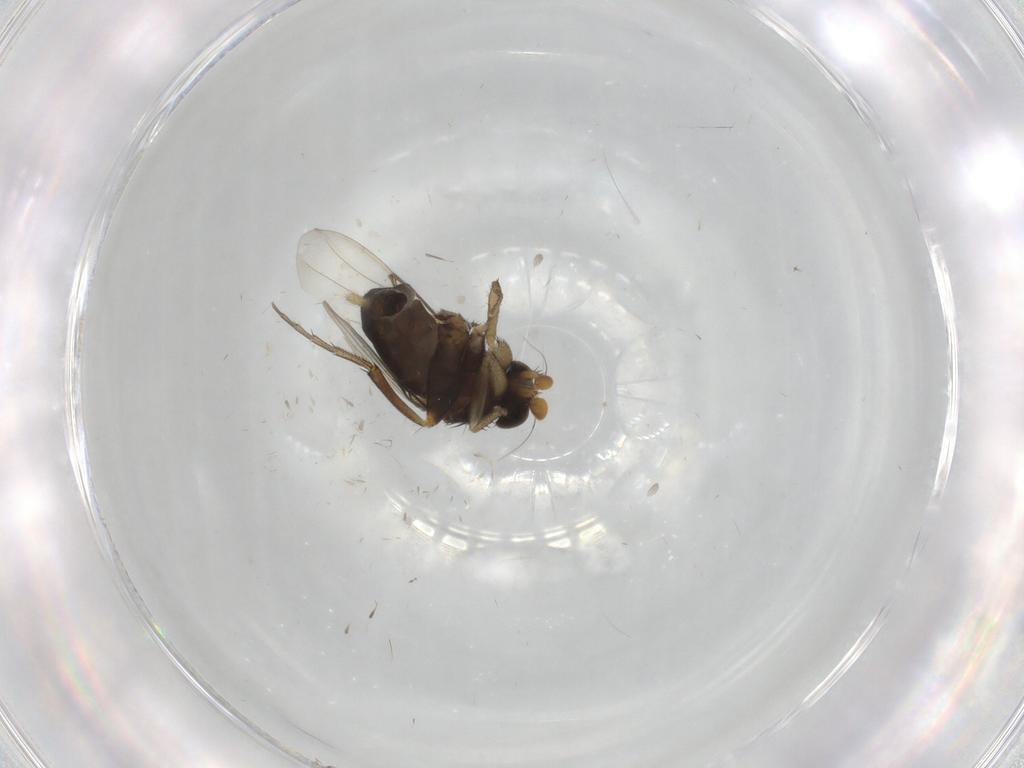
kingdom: Animalia
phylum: Arthropoda
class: Insecta
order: Diptera
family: Phoridae
